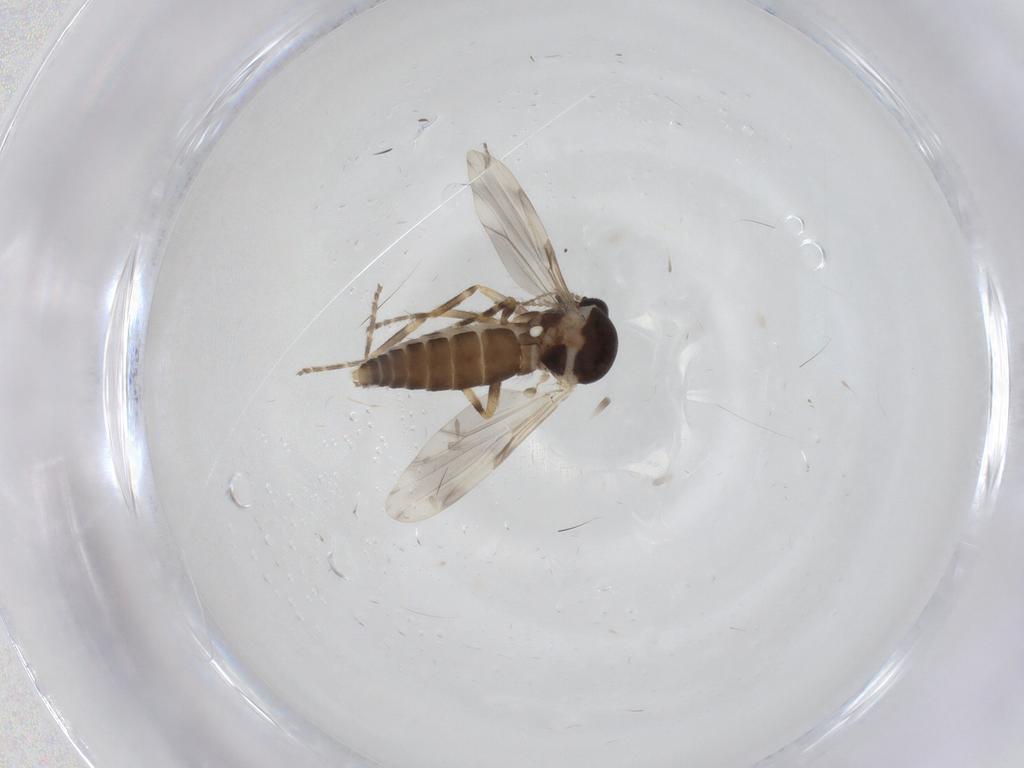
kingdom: Animalia
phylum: Arthropoda
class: Insecta
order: Diptera
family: Ceratopogonidae
